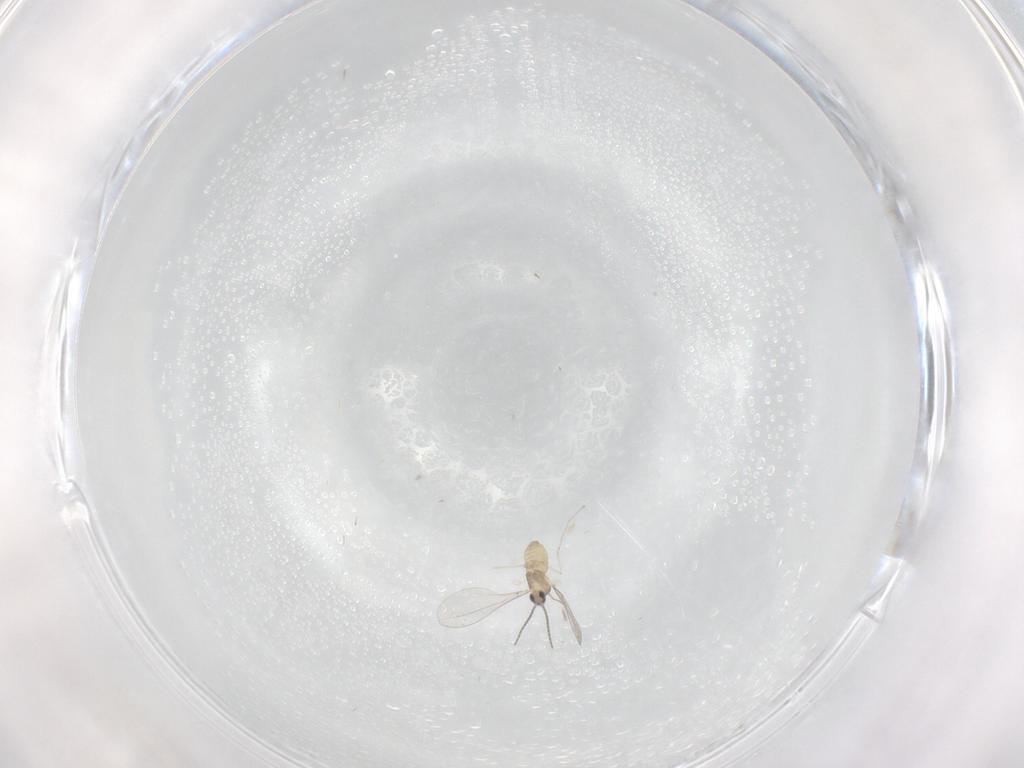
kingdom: Animalia
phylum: Arthropoda
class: Insecta
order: Diptera
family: Cecidomyiidae
